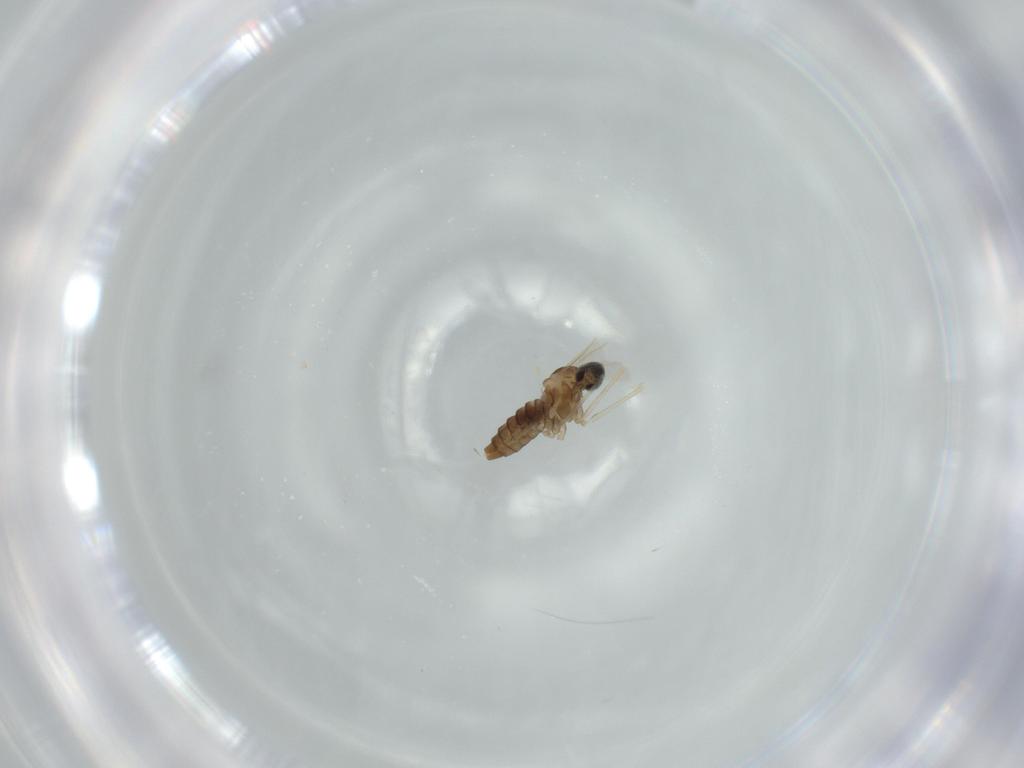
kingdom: Animalia
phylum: Arthropoda
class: Insecta
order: Diptera
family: Cecidomyiidae
